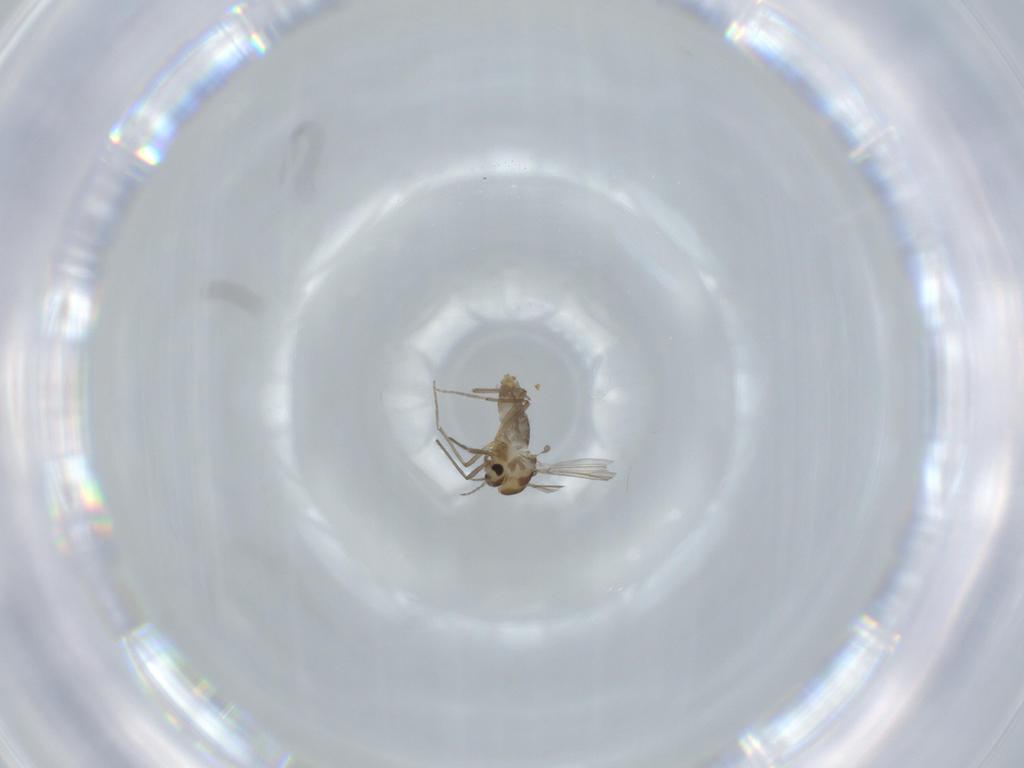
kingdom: Animalia
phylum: Arthropoda
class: Insecta
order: Diptera
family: Chironomidae
